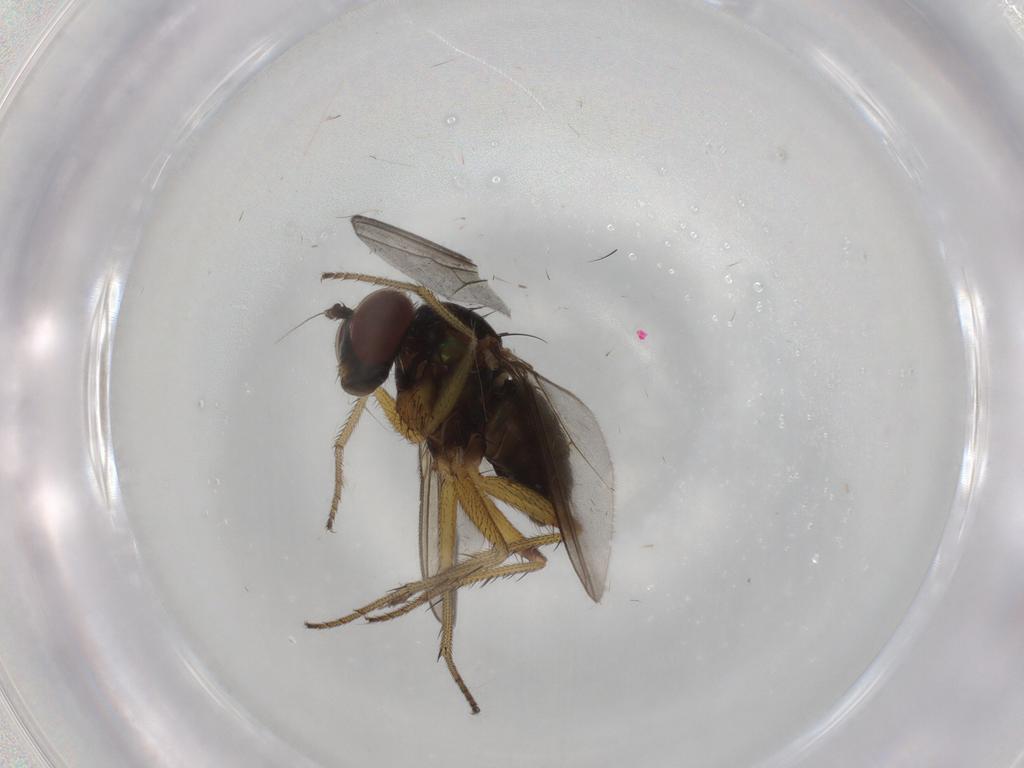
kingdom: Animalia
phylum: Arthropoda
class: Insecta
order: Diptera
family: Dolichopodidae
